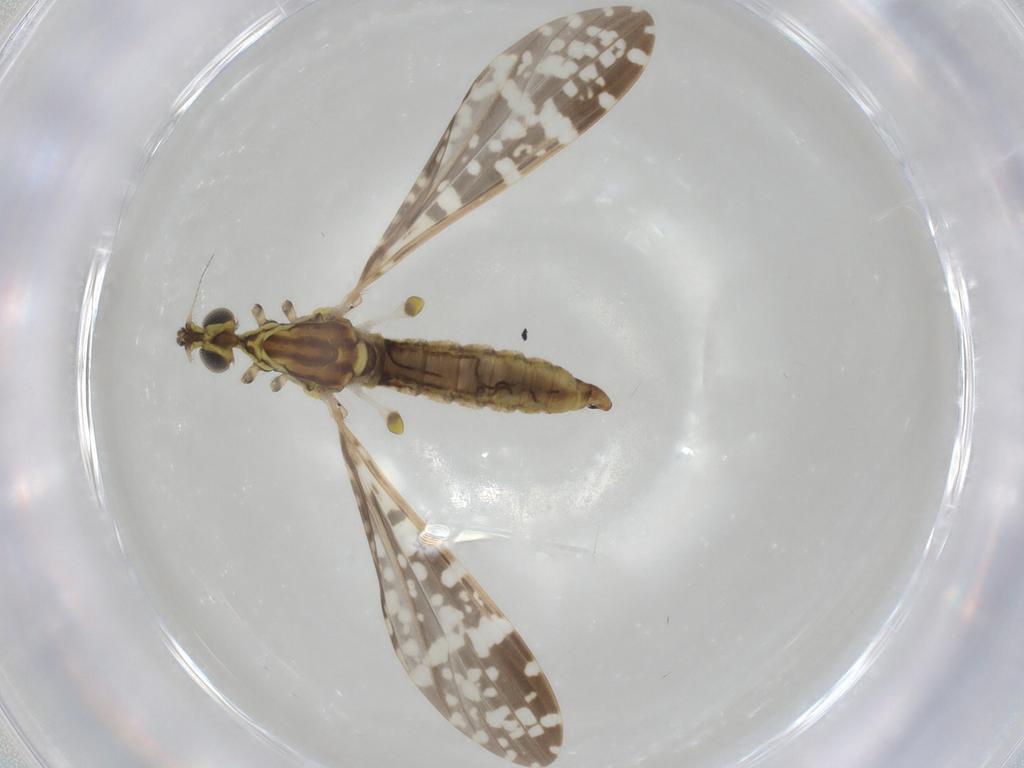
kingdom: Animalia
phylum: Arthropoda
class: Insecta
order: Diptera
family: Limoniidae
